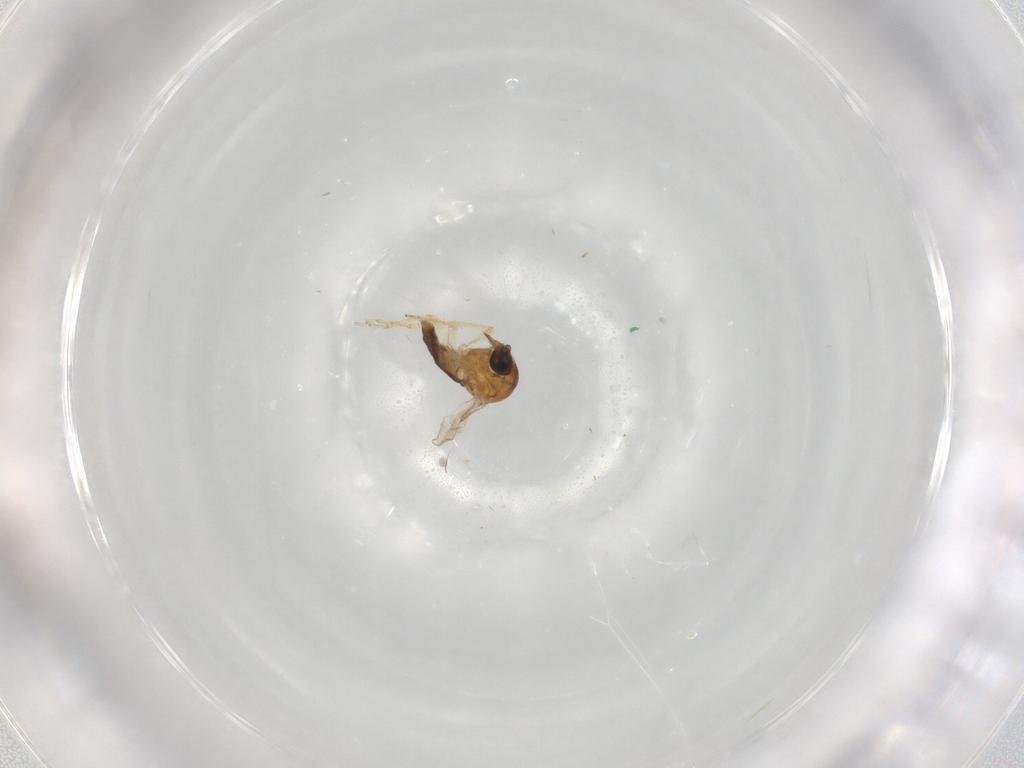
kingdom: Animalia
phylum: Arthropoda
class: Insecta
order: Diptera
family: Ceratopogonidae
